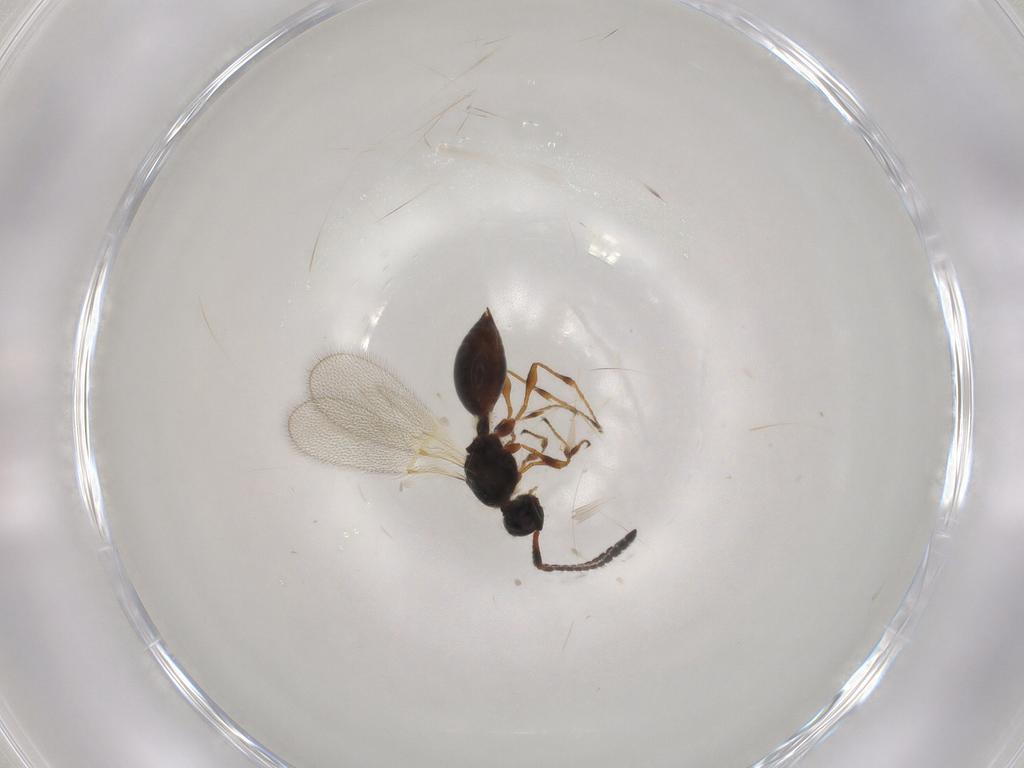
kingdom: Animalia
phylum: Arthropoda
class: Insecta
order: Hymenoptera
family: Diapriidae
